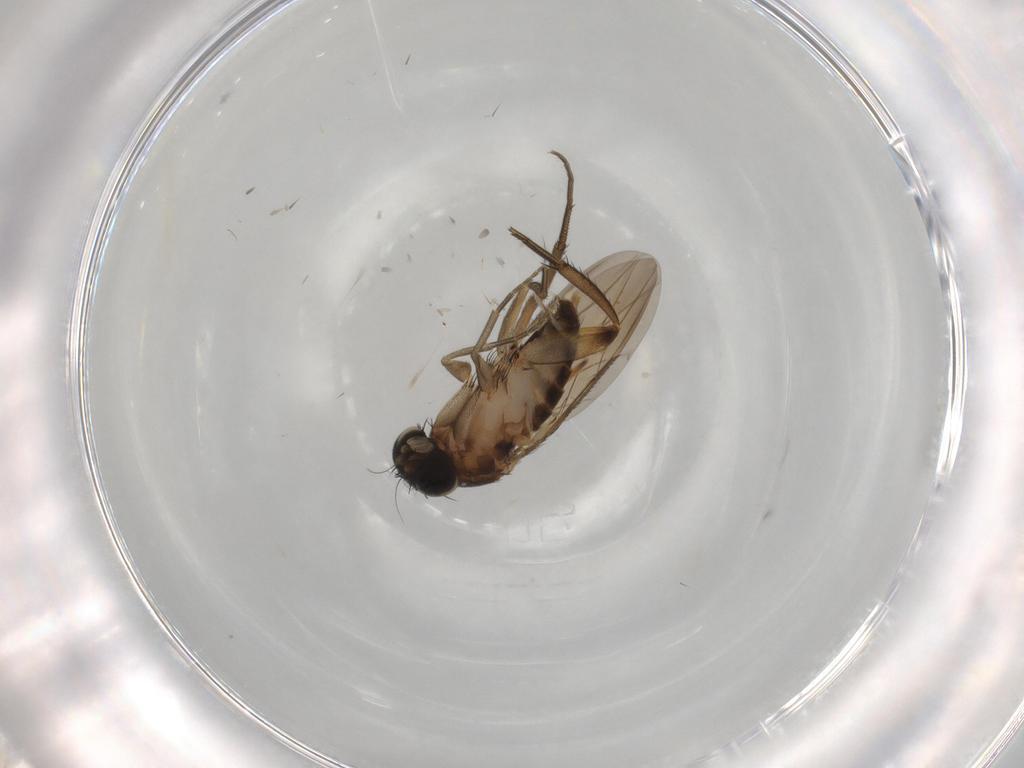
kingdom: Animalia
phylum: Arthropoda
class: Insecta
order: Diptera
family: Phoridae
